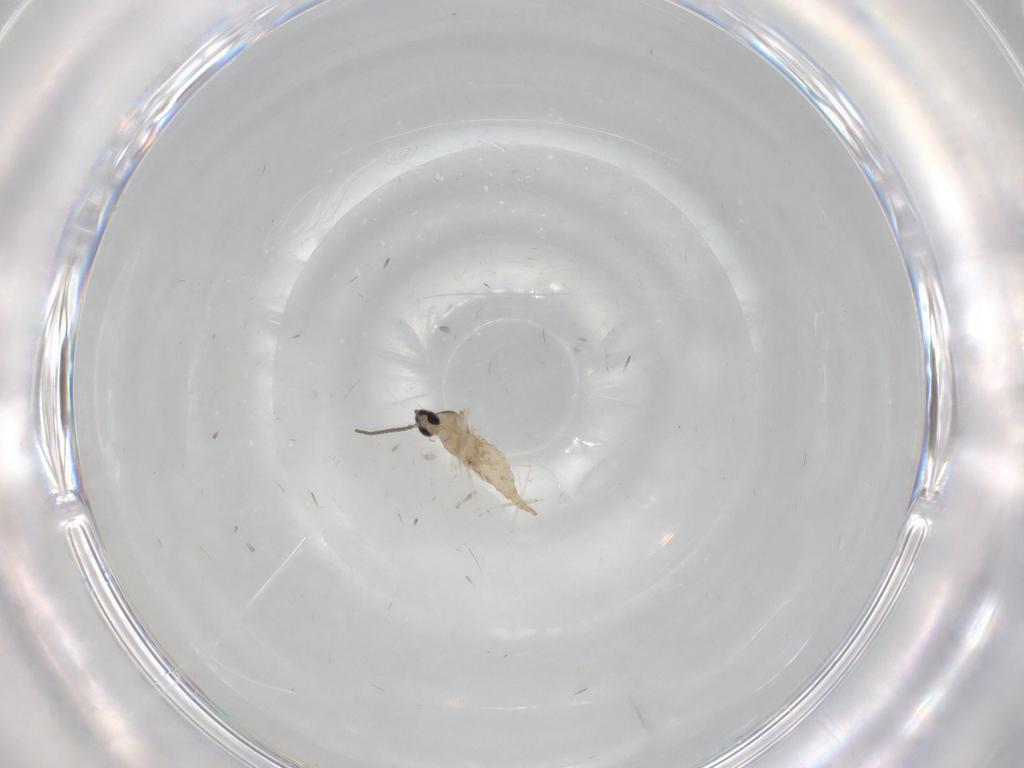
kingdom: Animalia
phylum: Arthropoda
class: Insecta
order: Diptera
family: Cecidomyiidae
